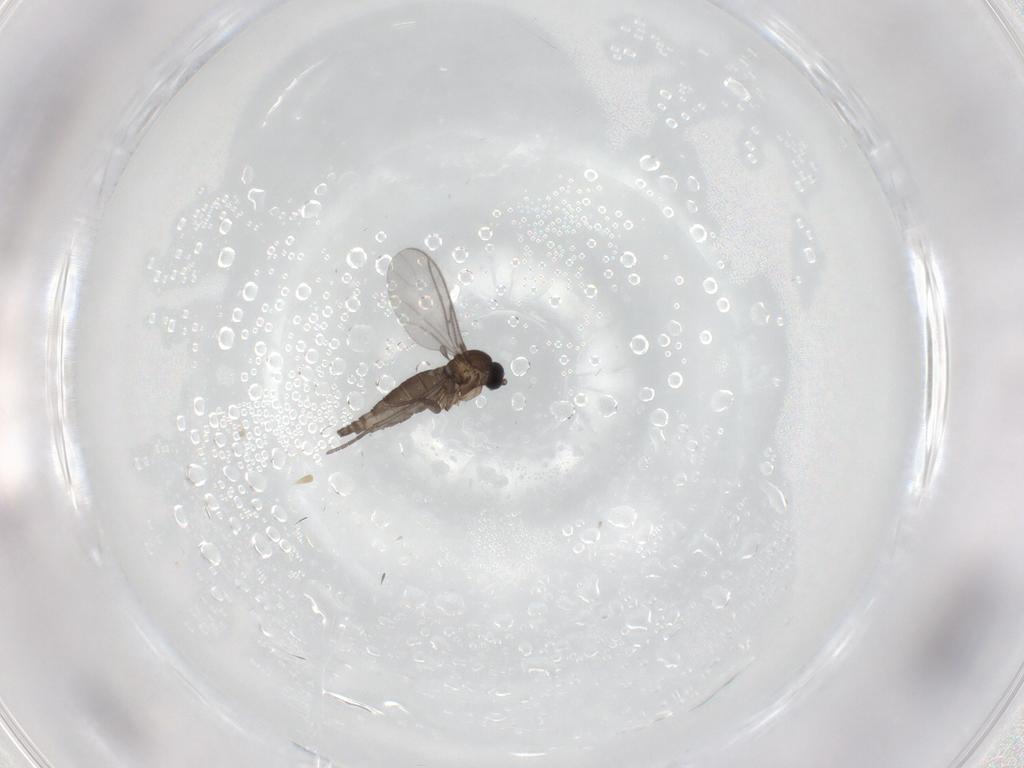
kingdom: Animalia
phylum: Arthropoda
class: Insecta
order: Diptera
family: Sciaridae
